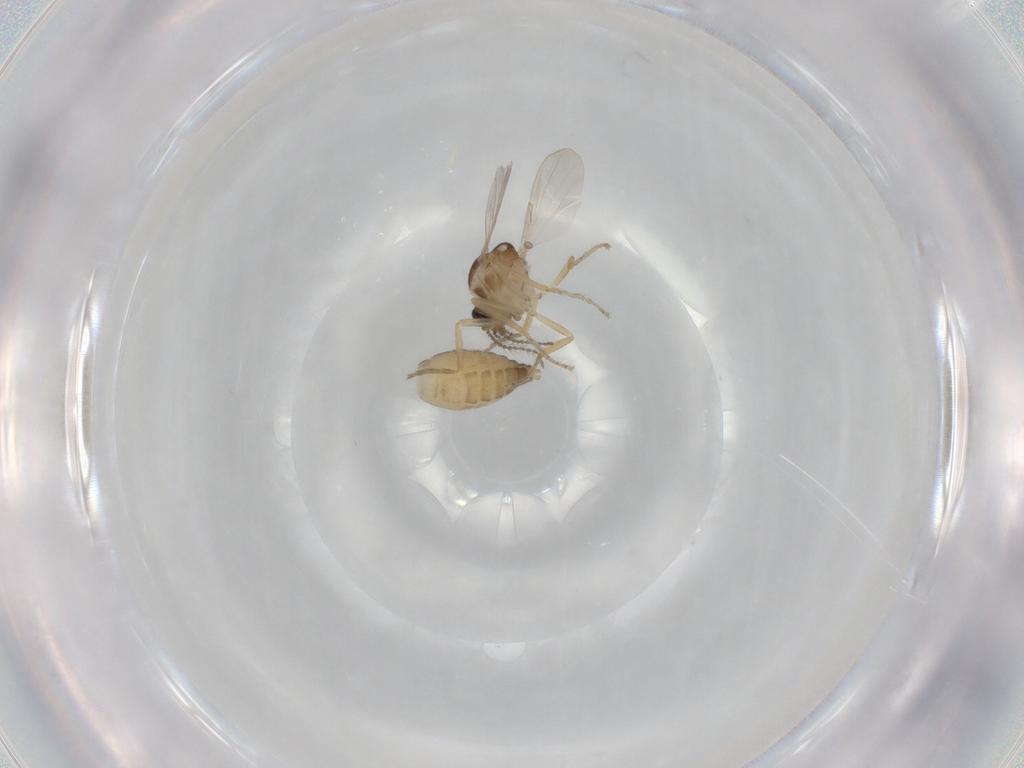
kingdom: Animalia
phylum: Arthropoda
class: Insecta
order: Diptera
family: Ceratopogonidae
